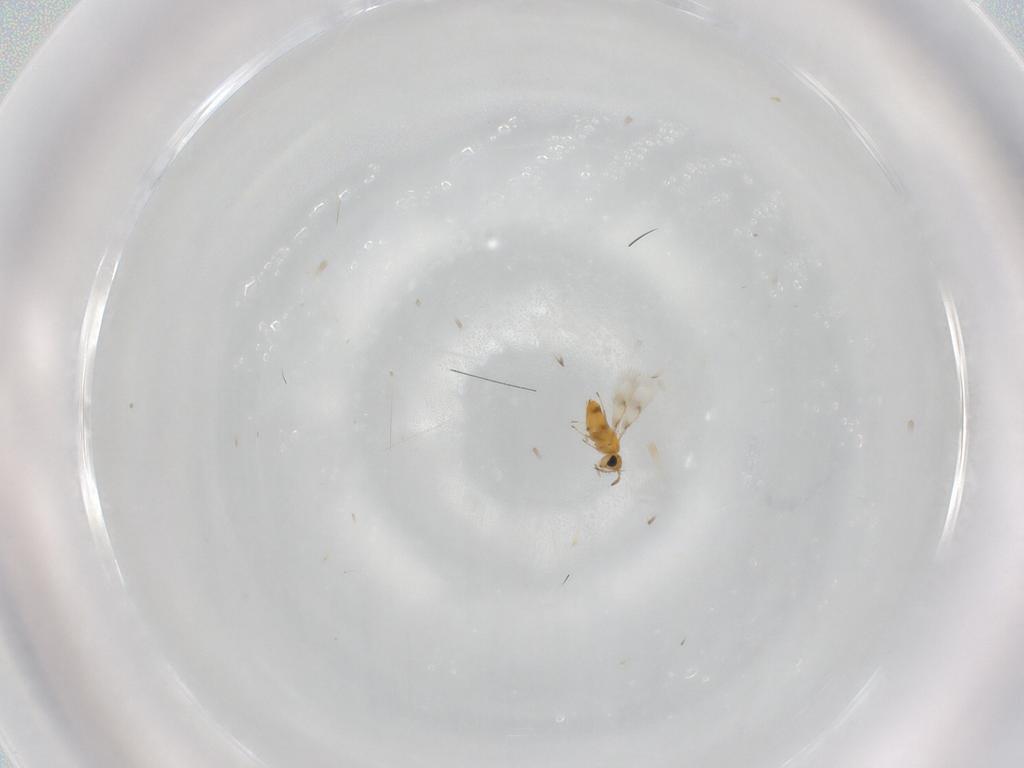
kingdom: Animalia
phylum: Arthropoda
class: Insecta
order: Hymenoptera
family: Aphelinidae
